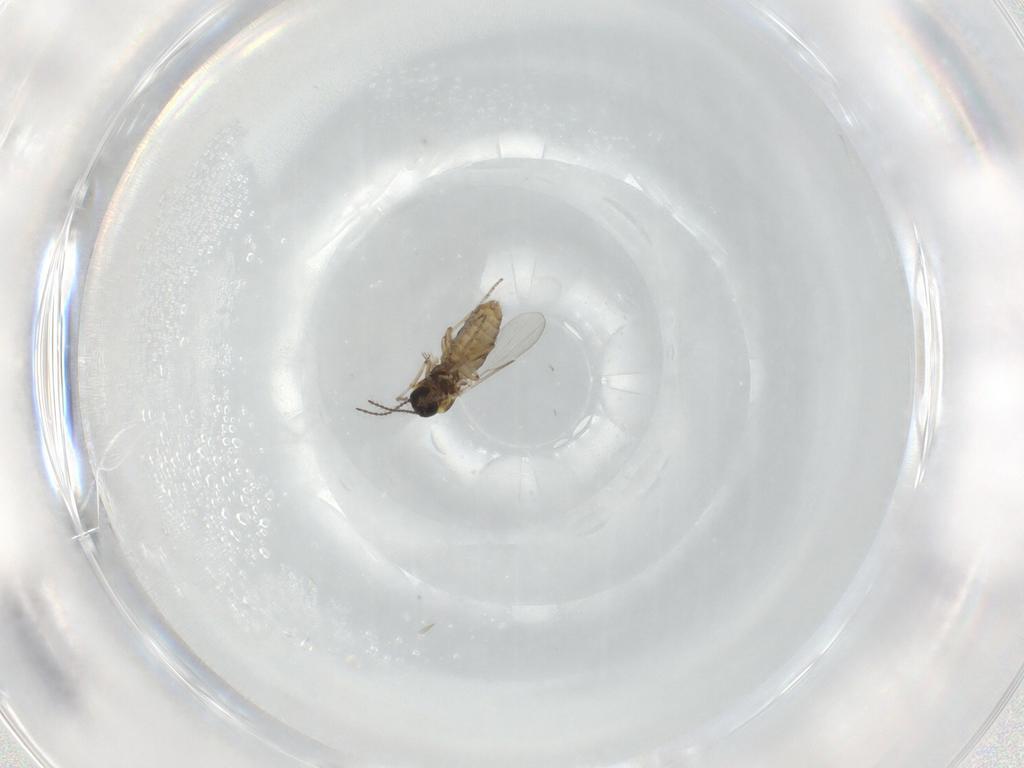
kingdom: Animalia
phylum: Arthropoda
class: Insecta
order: Diptera
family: Ceratopogonidae
